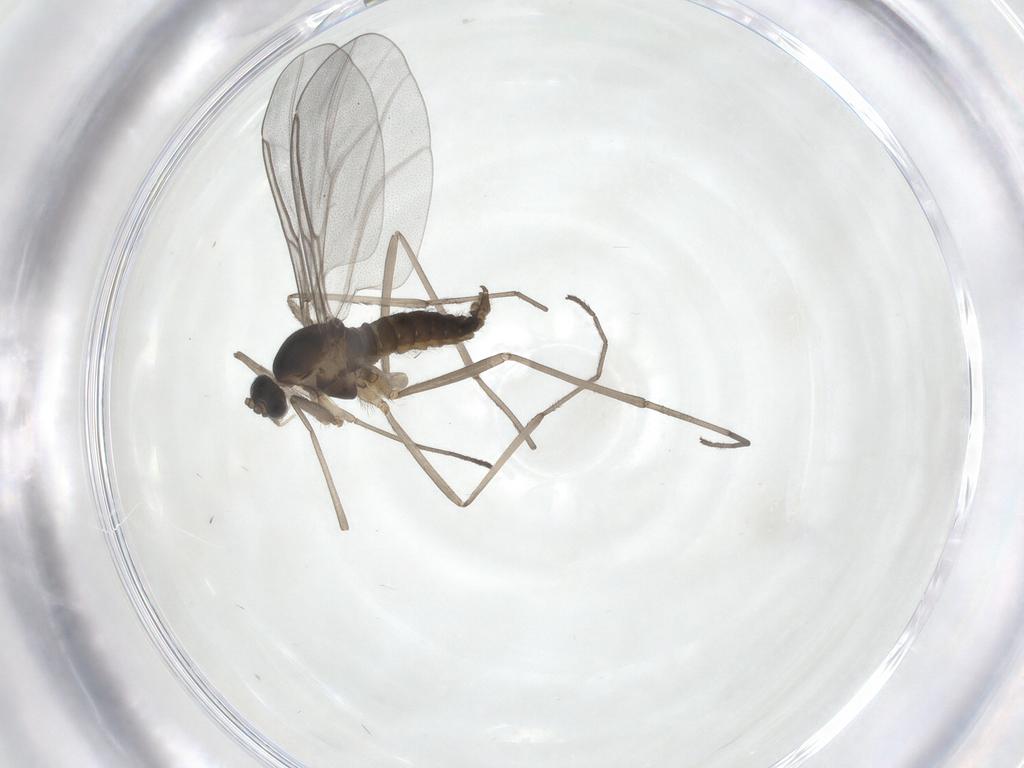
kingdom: Animalia
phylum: Arthropoda
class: Insecta
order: Diptera
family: Cecidomyiidae
